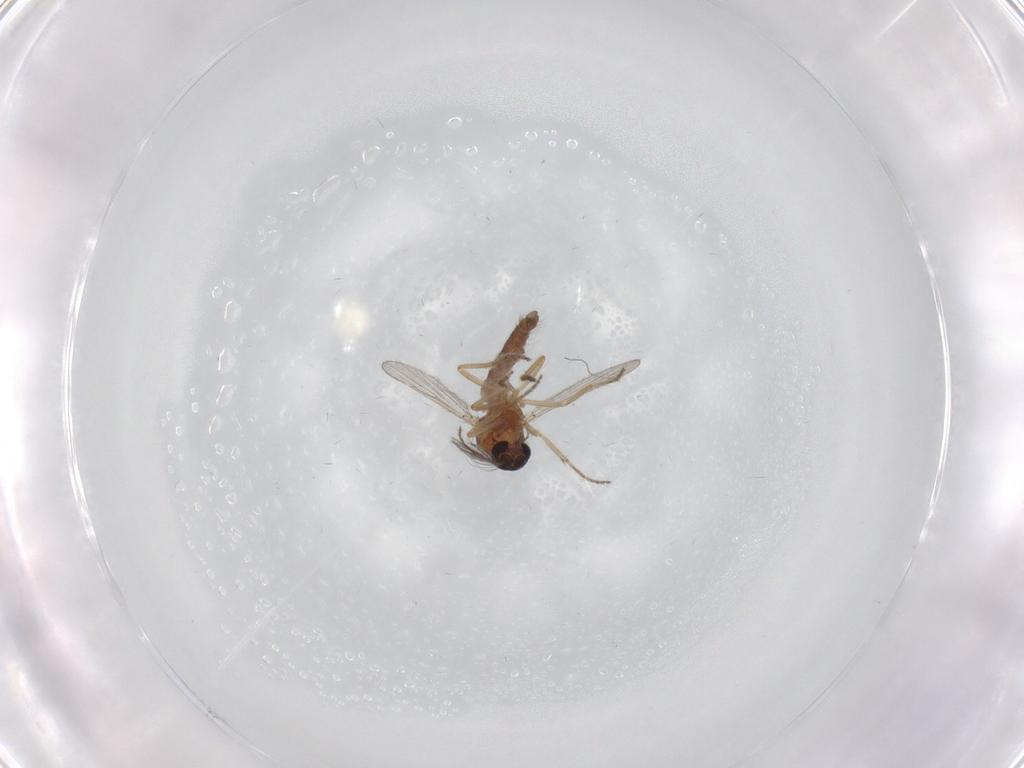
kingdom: Animalia
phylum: Arthropoda
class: Insecta
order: Diptera
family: Ceratopogonidae
